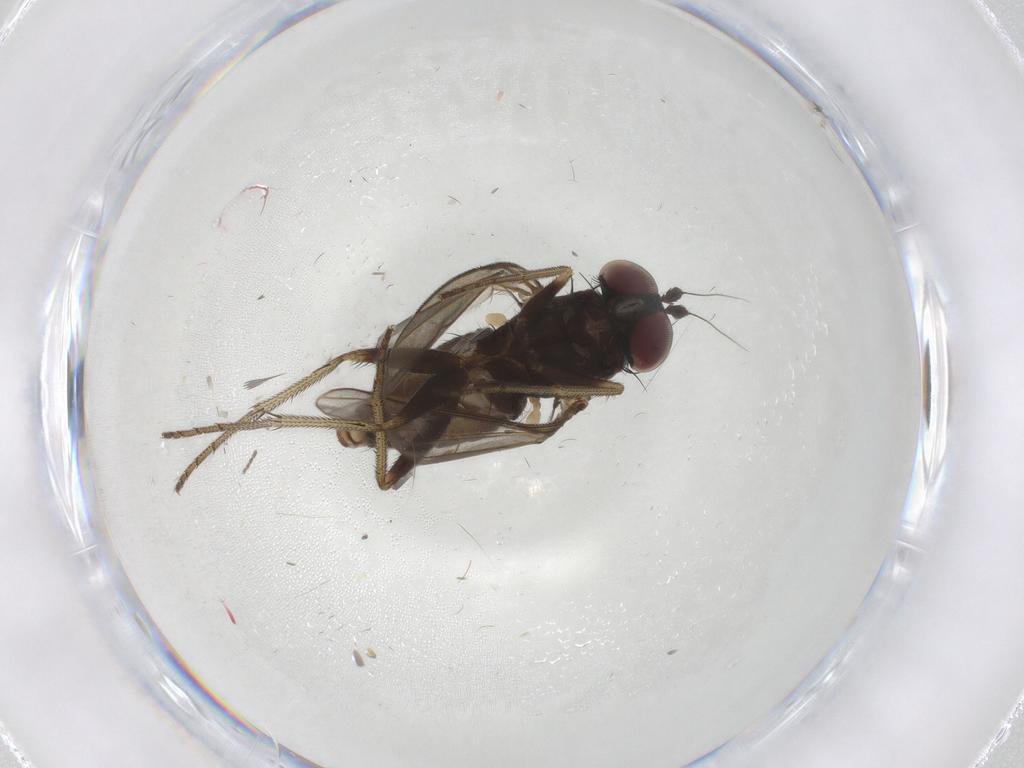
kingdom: Animalia
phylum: Arthropoda
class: Insecta
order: Diptera
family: Dolichopodidae
